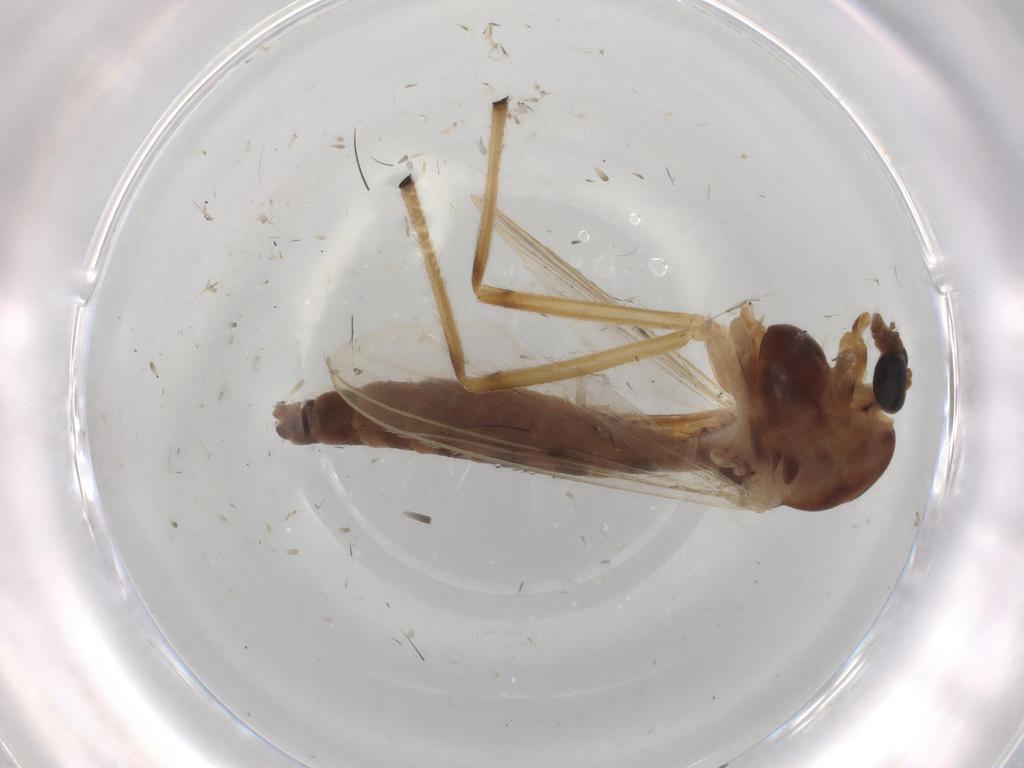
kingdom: Animalia
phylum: Arthropoda
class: Insecta
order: Diptera
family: Chironomidae
